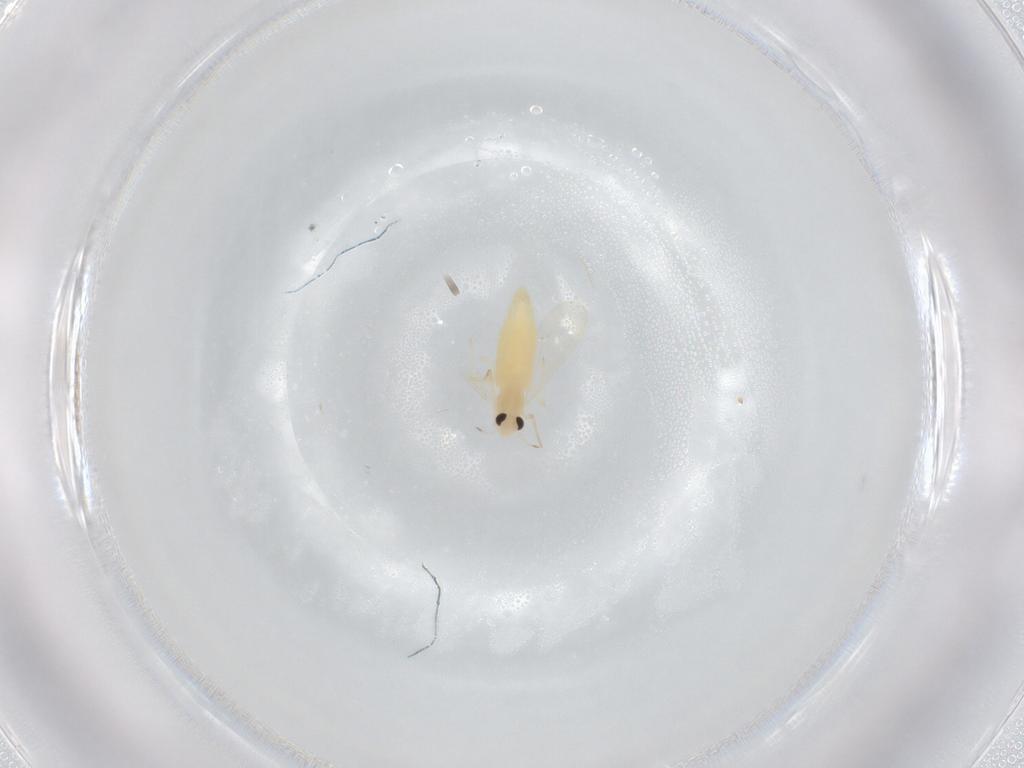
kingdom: Animalia
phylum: Arthropoda
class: Insecta
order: Diptera
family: Chironomidae
